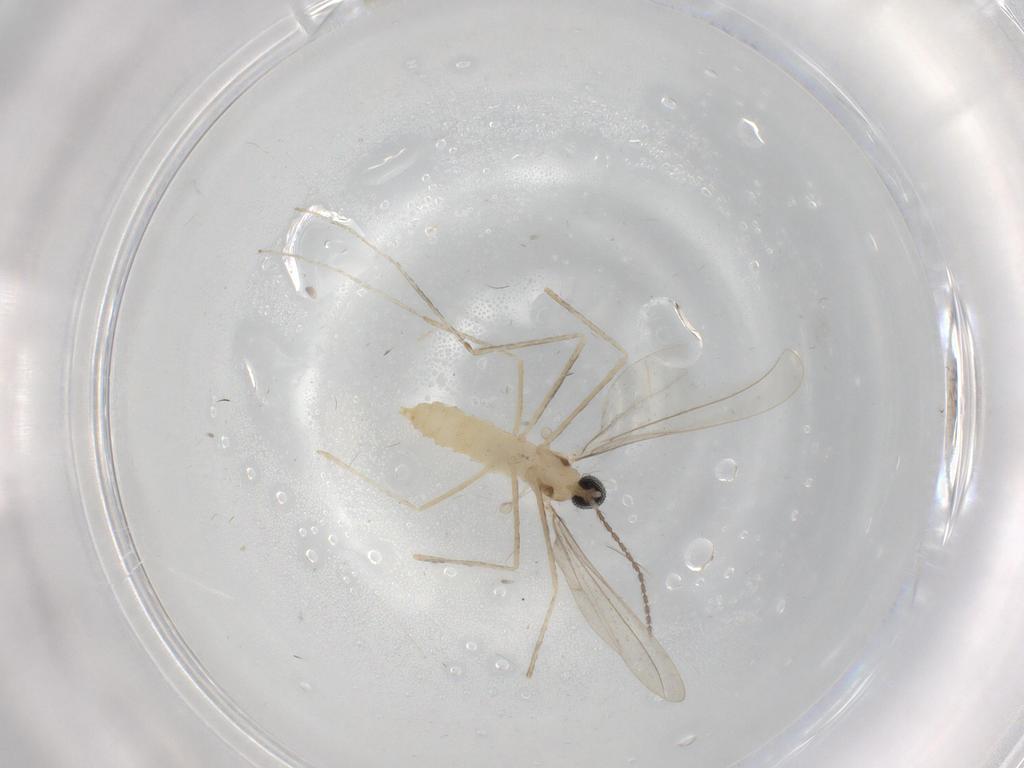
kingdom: Animalia
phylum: Arthropoda
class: Insecta
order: Diptera
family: Cecidomyiidae
